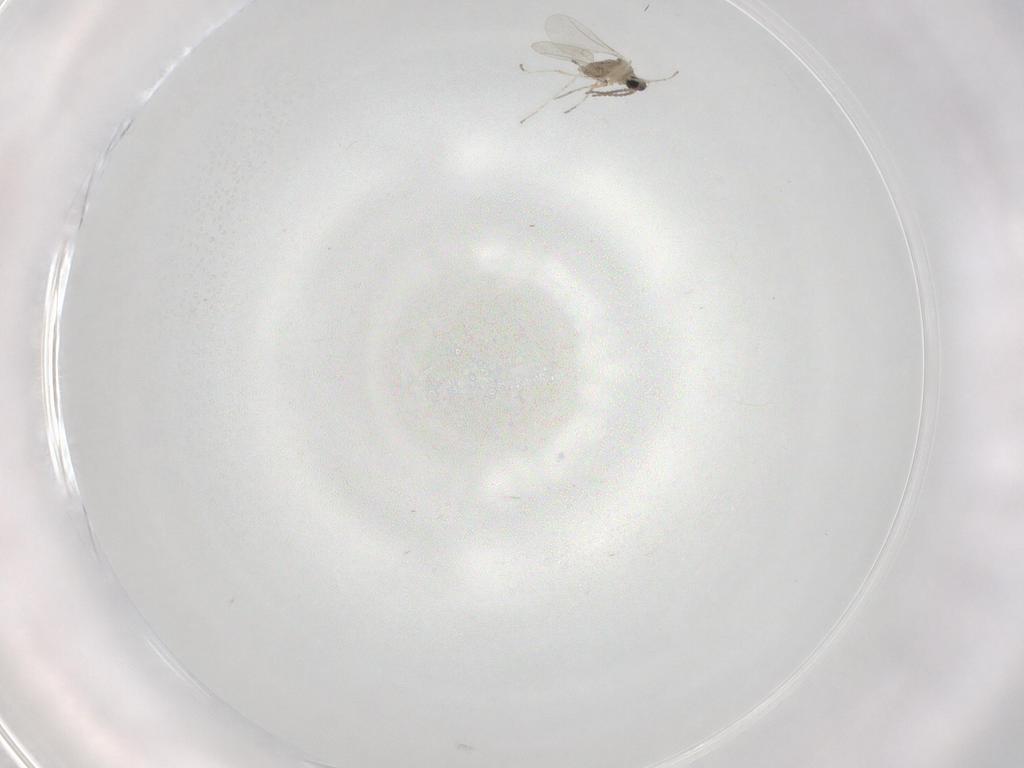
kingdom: Animalia
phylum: Arthropoda
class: Insecta
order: Diptera
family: Cecidomyiidae
